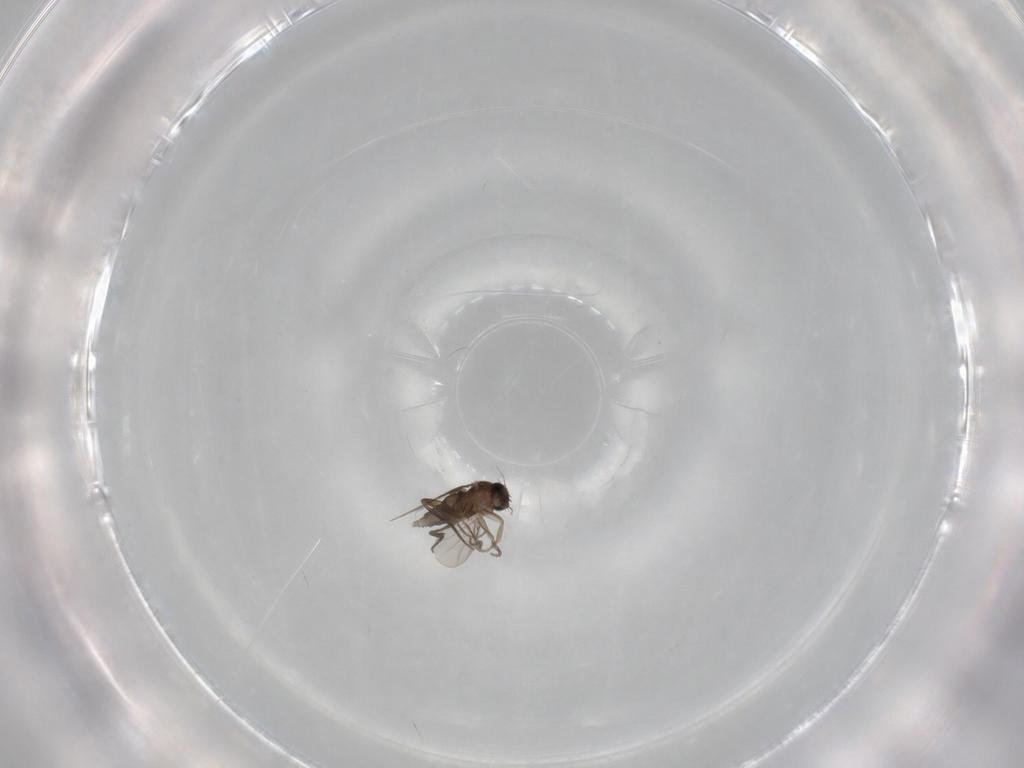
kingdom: Animalia
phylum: Arthropoda
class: Insecta
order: Diptera
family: Phoridae
